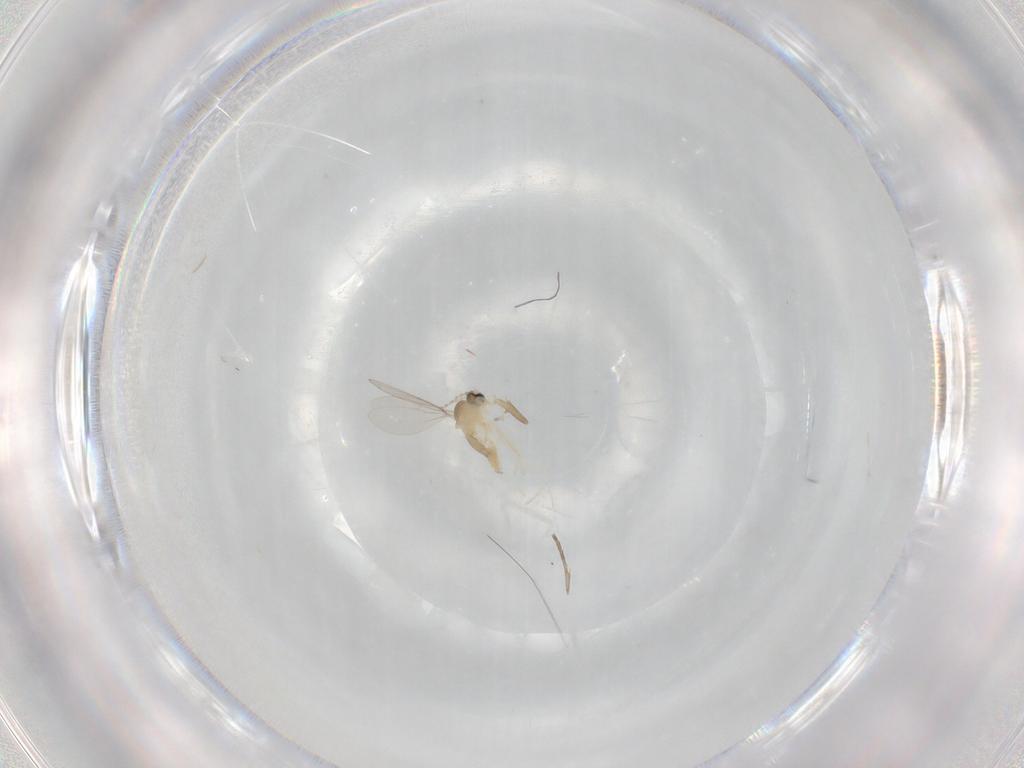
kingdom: Animalia
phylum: Arthropoda
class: Insecta
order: Diptera
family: Cecidomyiidae
